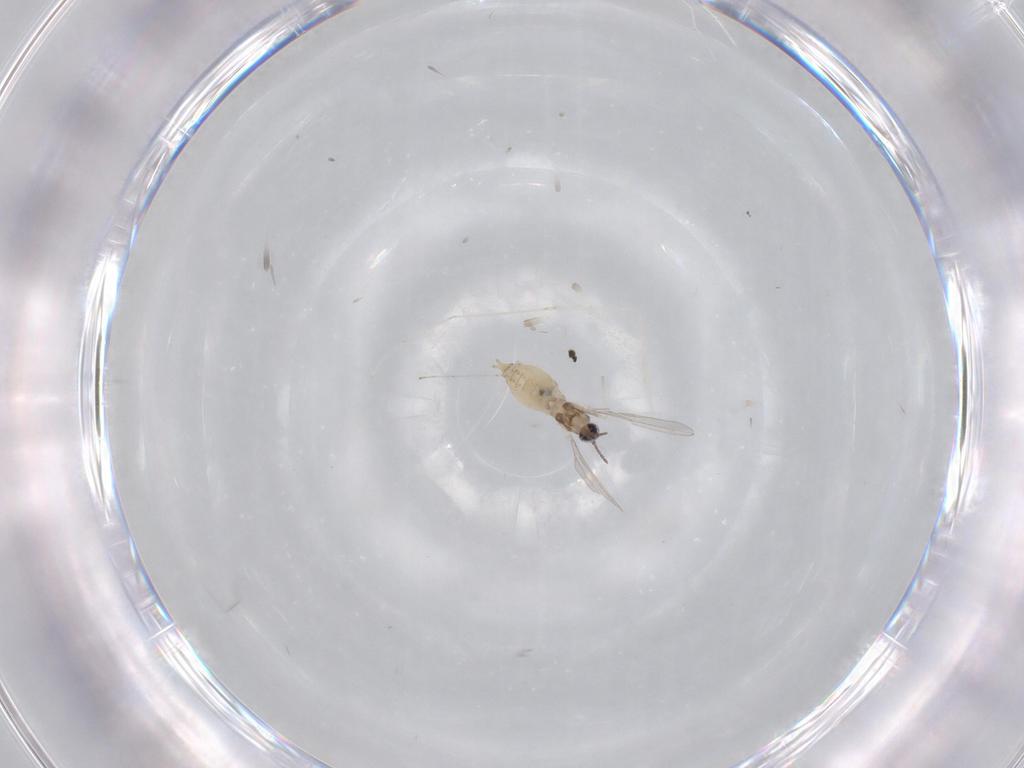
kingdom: Animalia
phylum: Arthropoda
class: Insecta
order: Diptera
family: Cecidomyiidae
